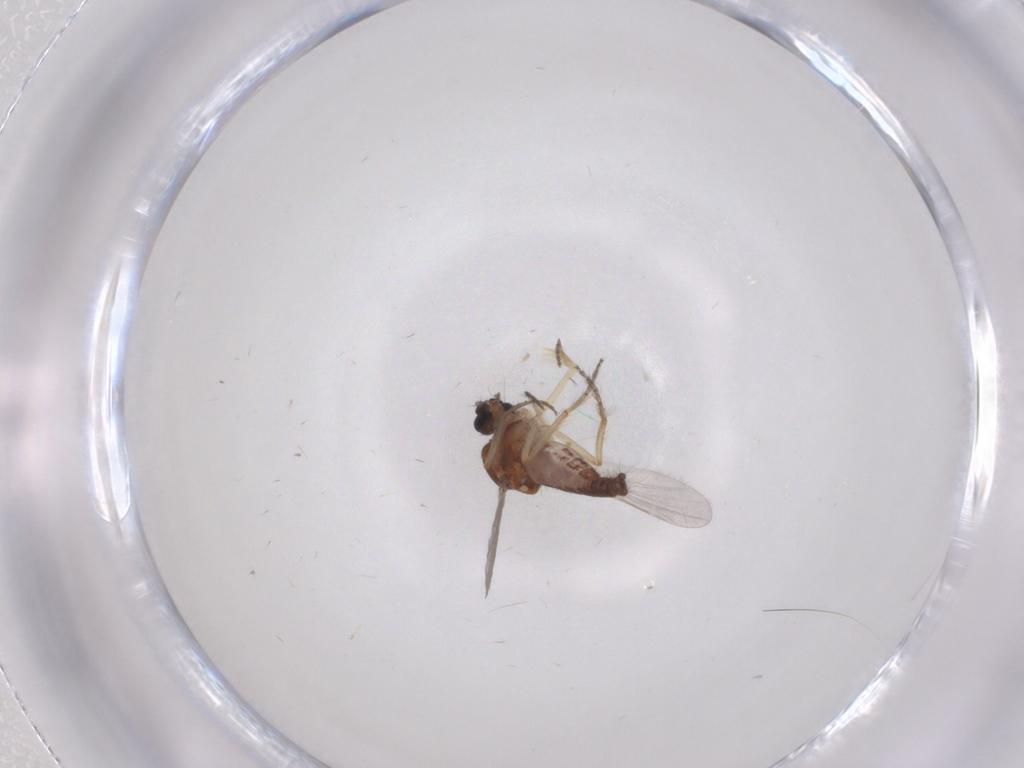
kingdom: Animalia
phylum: Arthropoda
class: Insecta
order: Diptera
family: Ceratopogonidae
